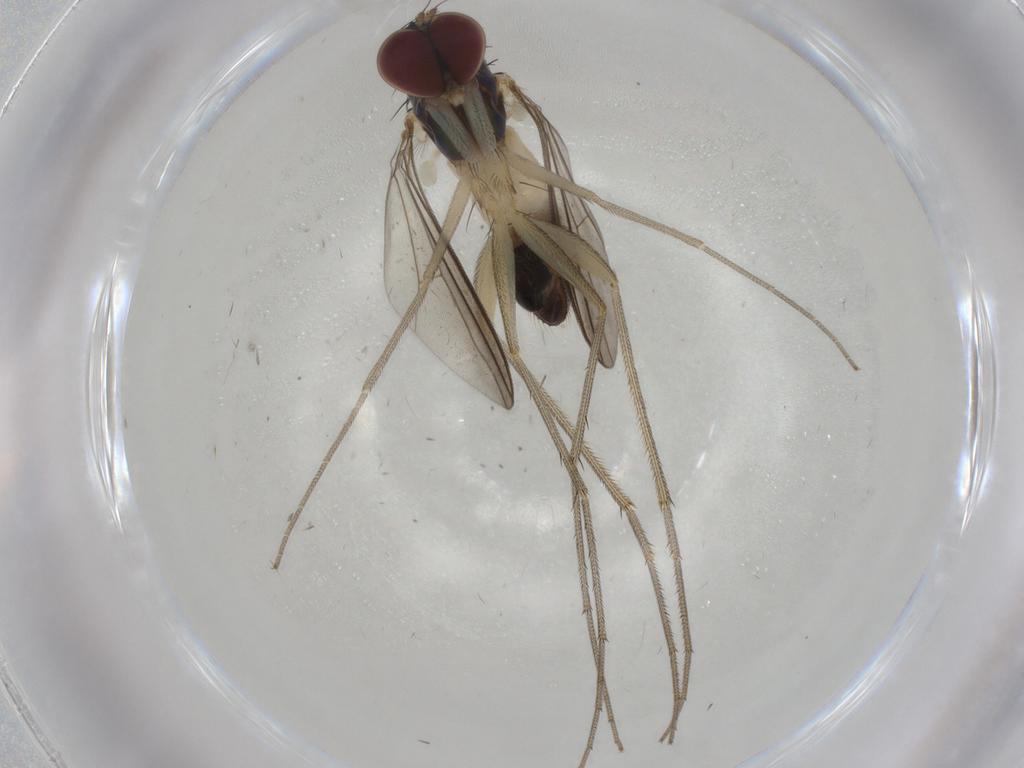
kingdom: Animalia
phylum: Arthropoda
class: Insecta
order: Diptera
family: Dolichopodidae
